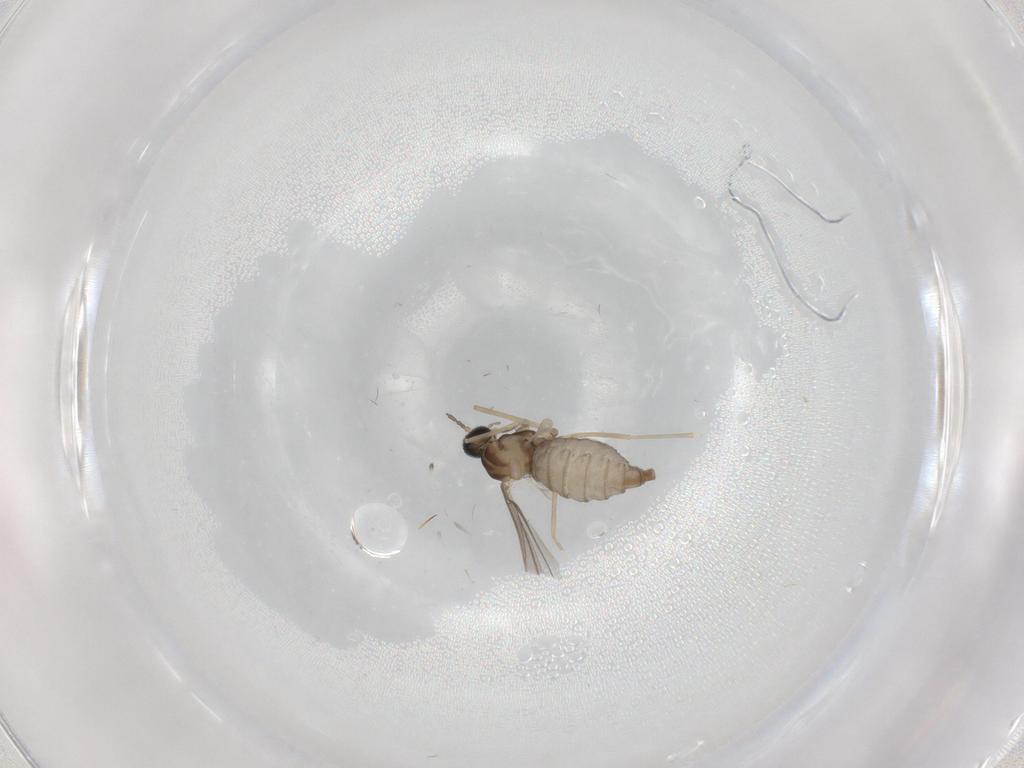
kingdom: Animalia
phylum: Arthropoda
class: Insecta
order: Diptera
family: Cecidomyiidae
